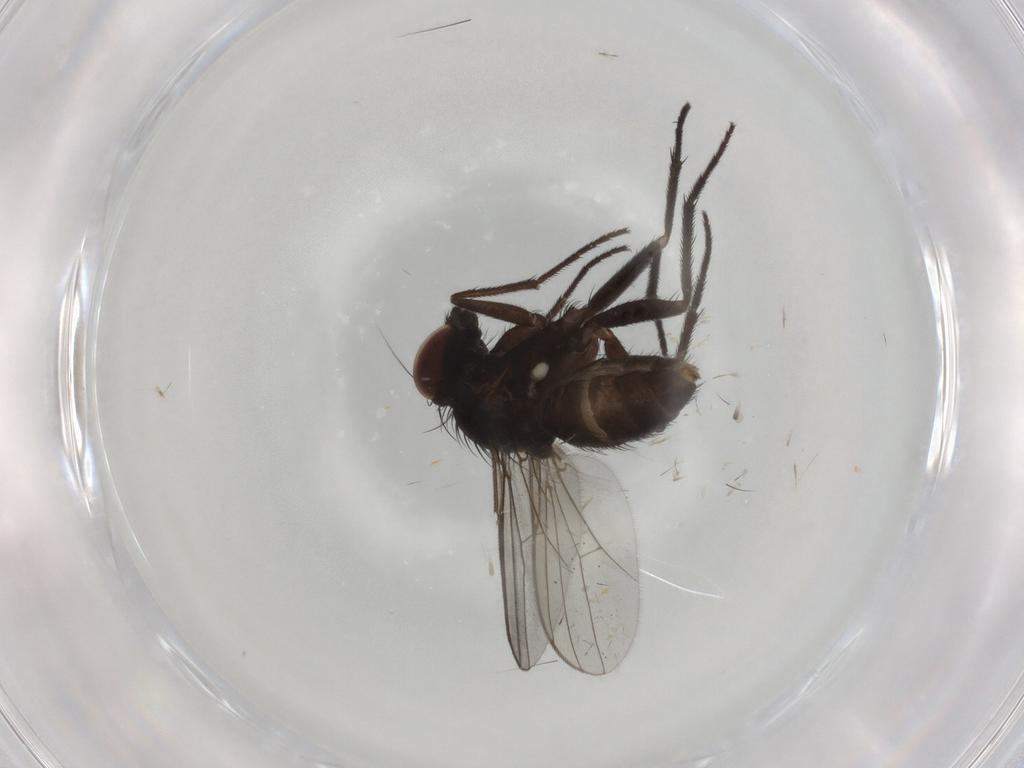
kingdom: Animalia
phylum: Arthropoda
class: Insecta
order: Diptera
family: Dolichopodidae
